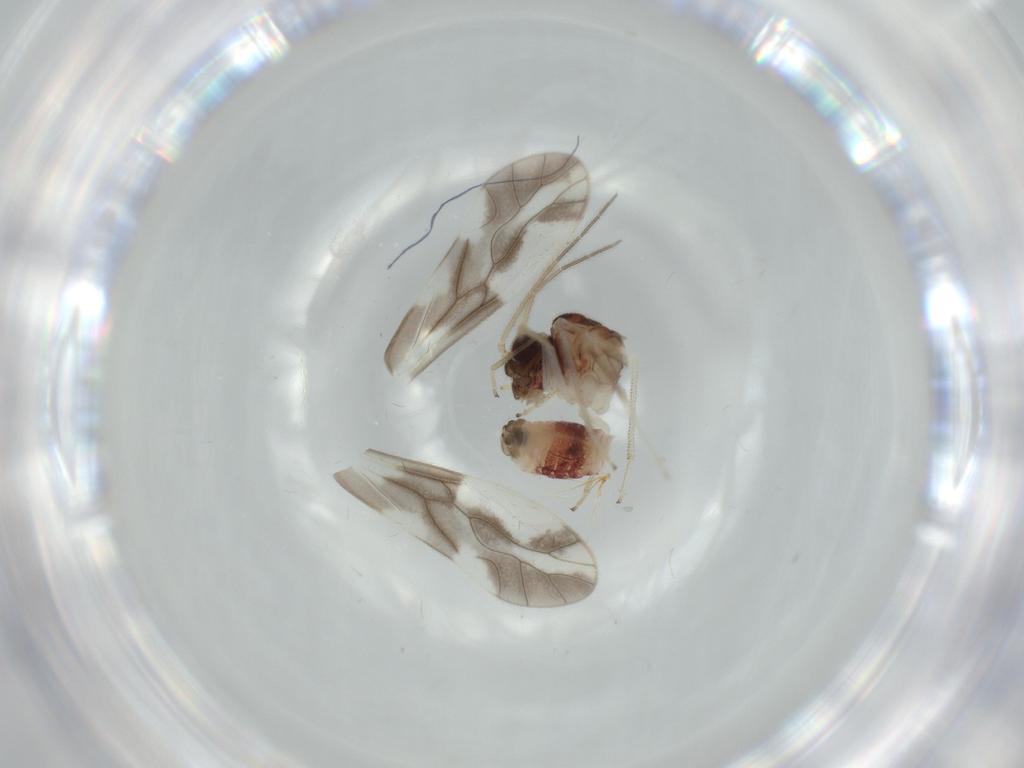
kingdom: Animalia
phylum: Arthropoda
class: Insecta
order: Psocodea
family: Caeciliusidae
